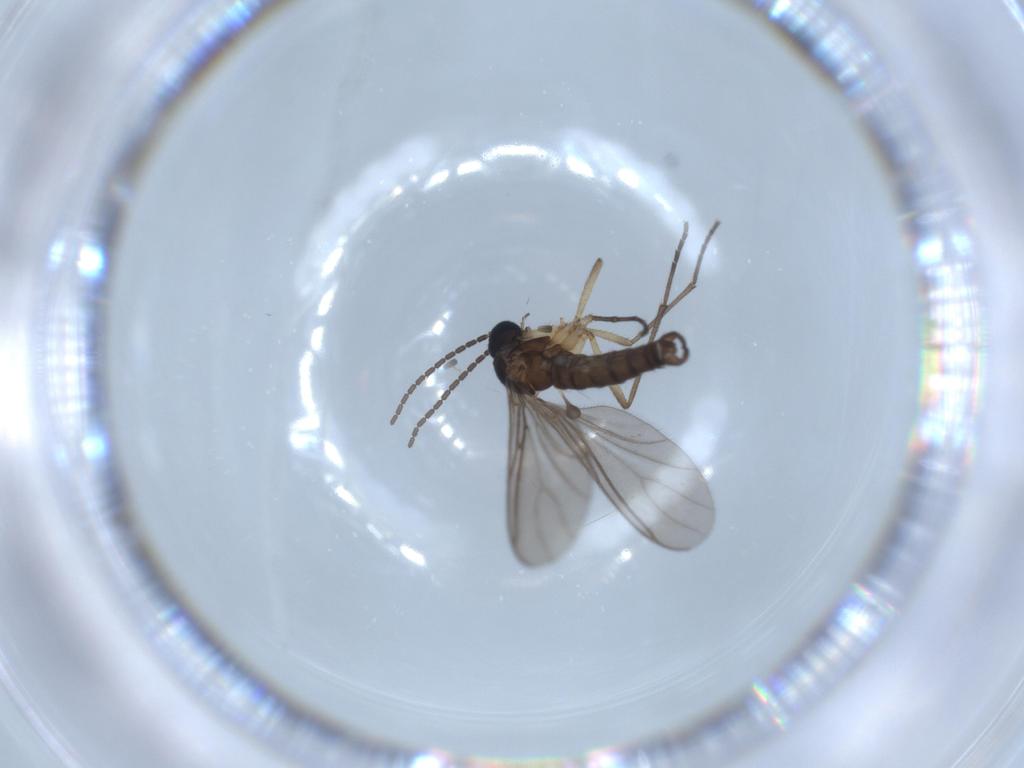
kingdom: Animalia
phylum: Arthropoda
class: Insecta
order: Diptera
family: Sciaridae
